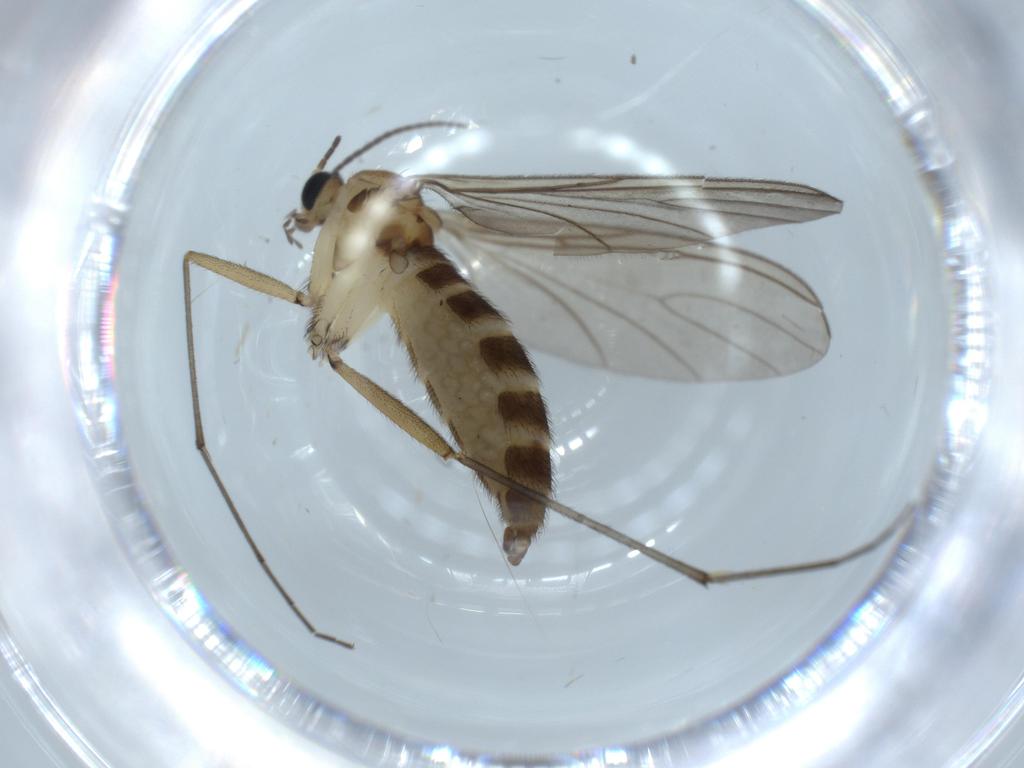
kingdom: Animalia
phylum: Arthropoda
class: Insecta
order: Diptera
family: Sciaridae
